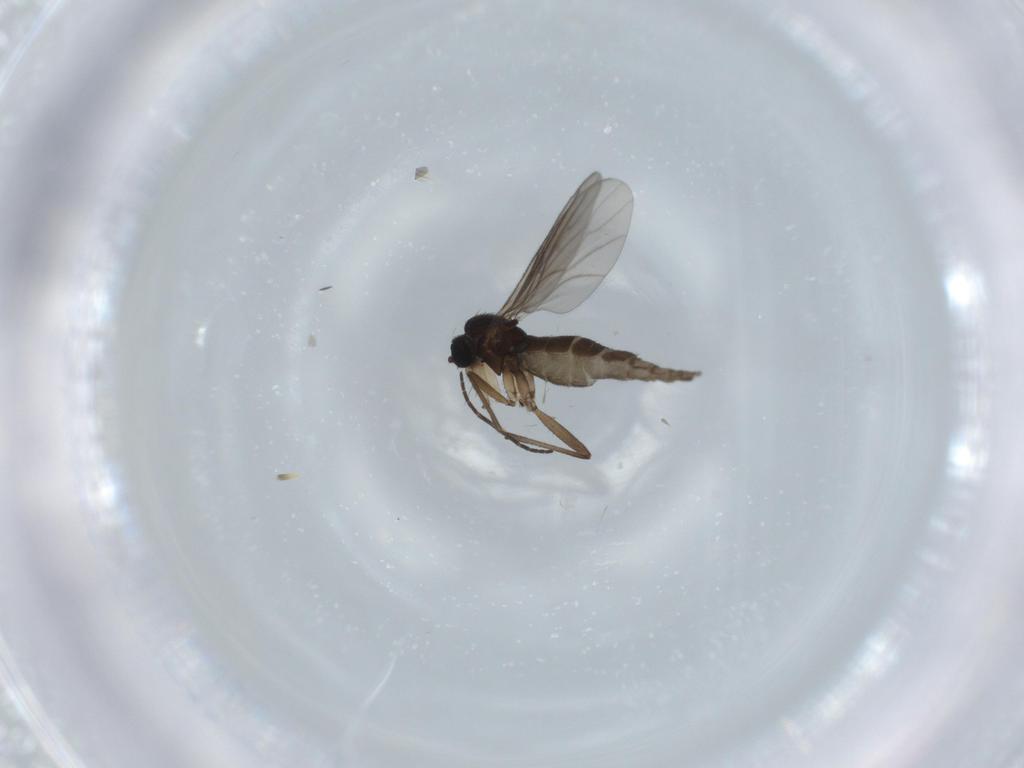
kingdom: Animalia
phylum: Arthropoda
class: Insecta
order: Diptera
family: Sciaridae
